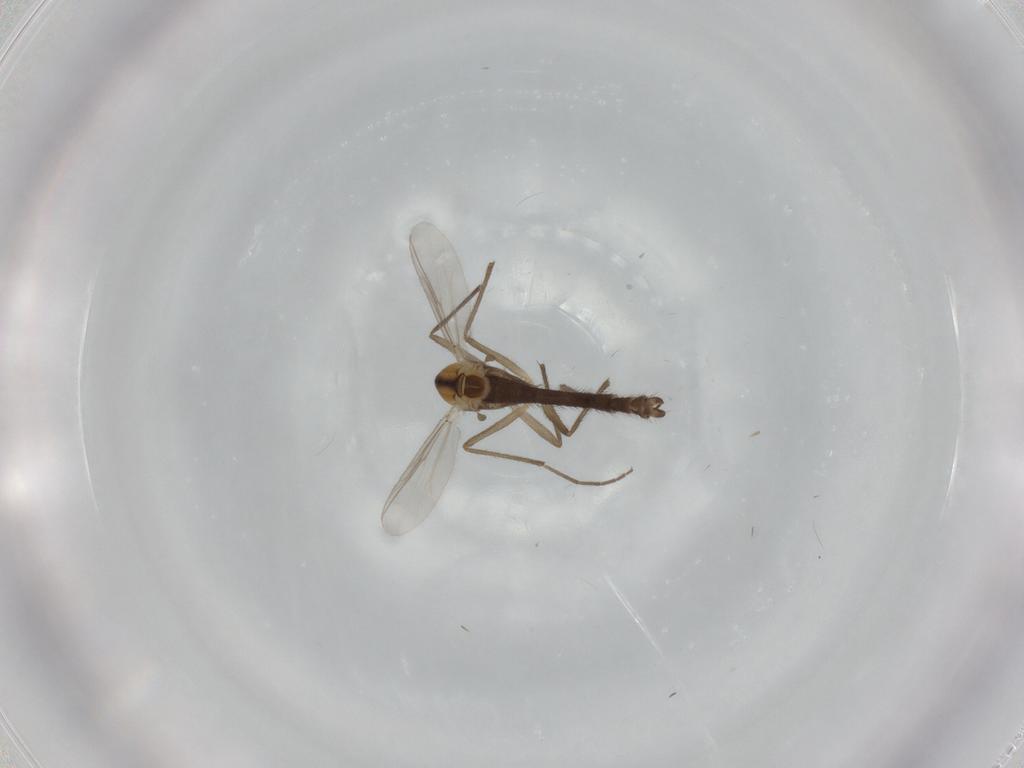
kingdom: Animalia
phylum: Arthropoda
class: Insecta
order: Diptera
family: Chironomidae
